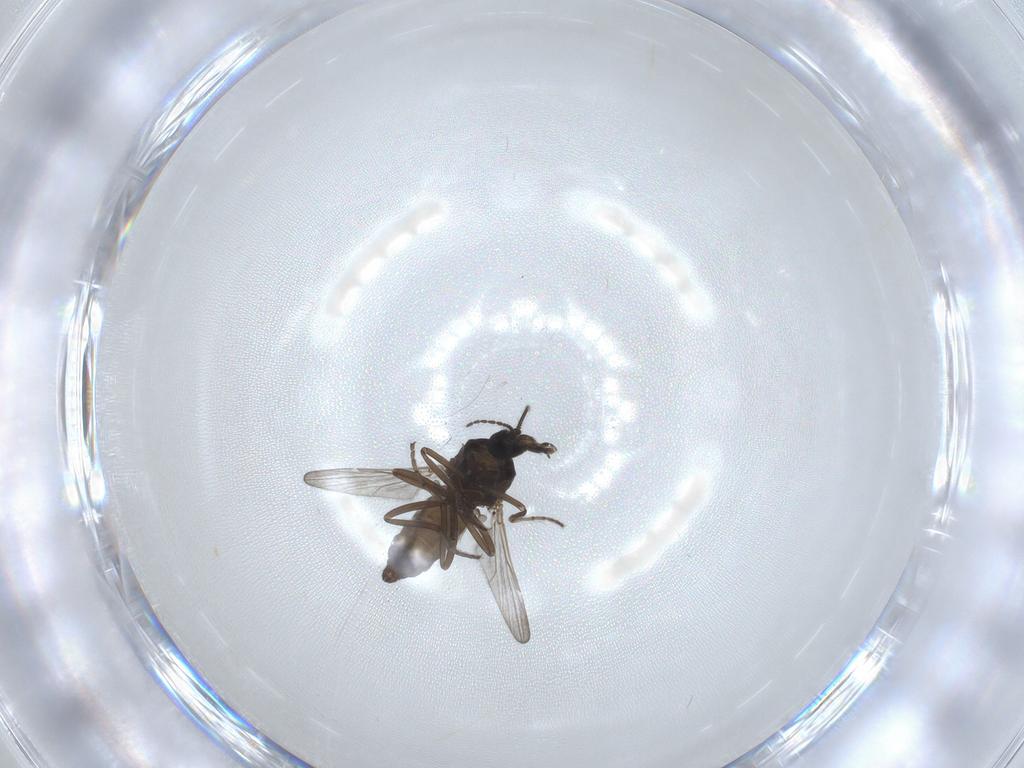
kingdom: Animalia
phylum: Arthropoda
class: Insecta
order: Diptera
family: Ceratopogonidae
